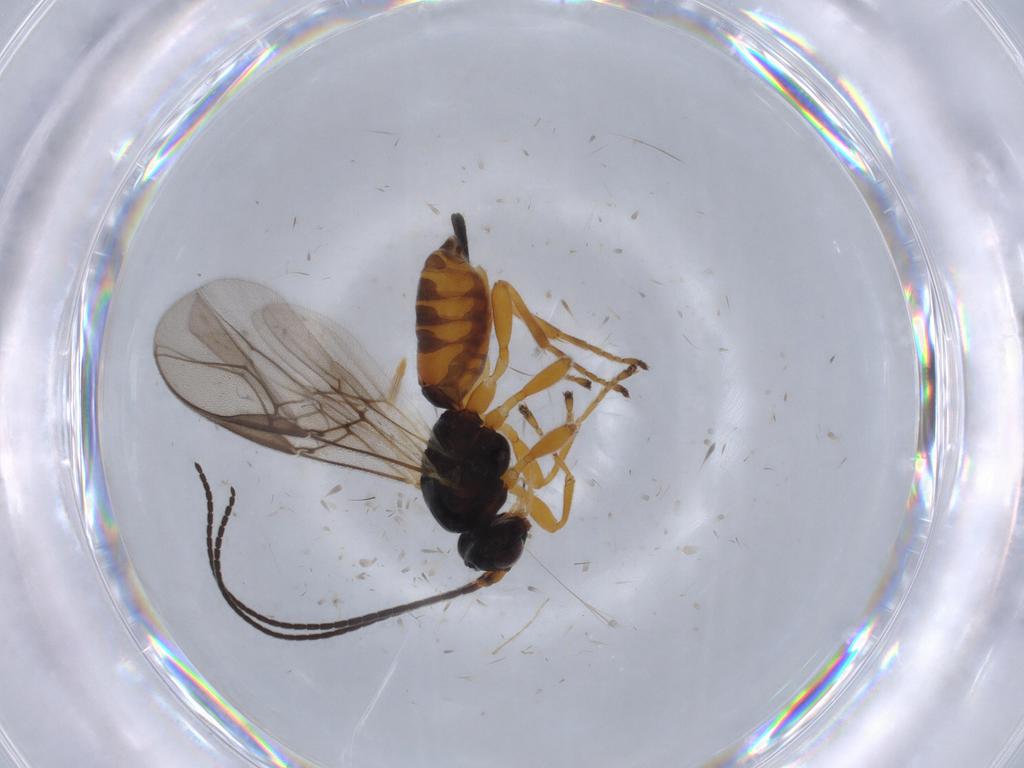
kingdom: Animalia
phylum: Arthropoda
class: Insecta
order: Hymenoptera
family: Braconidae
